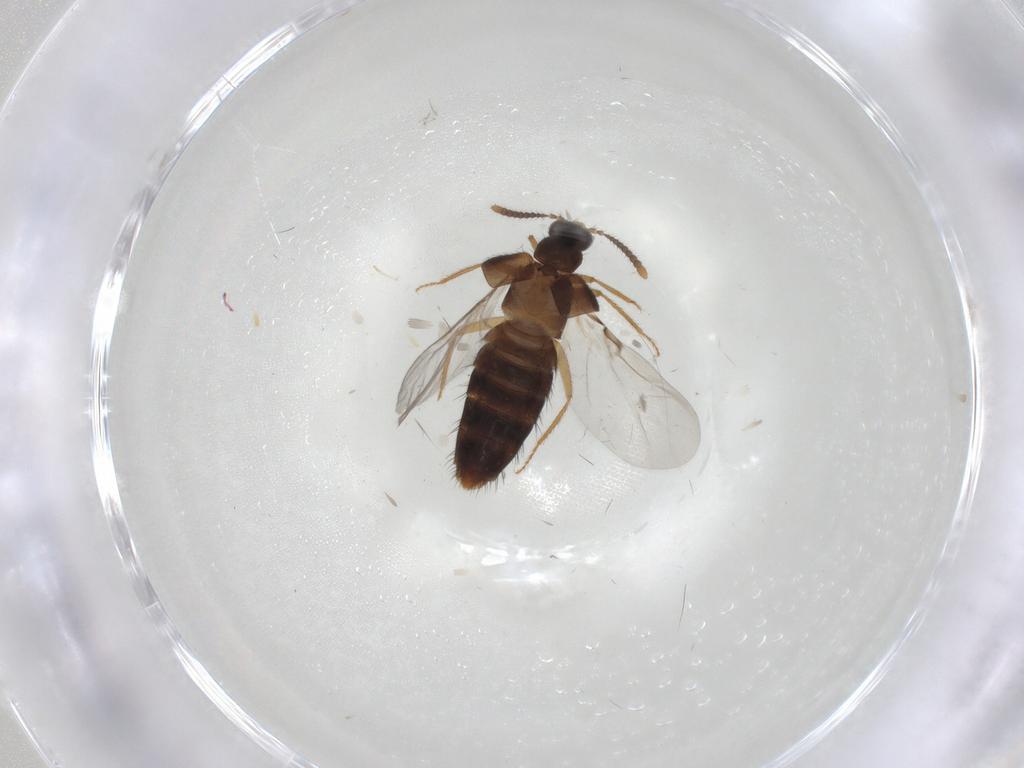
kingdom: Animalia
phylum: Arthropoda
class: Insecta
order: Coleoptera
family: Staphylinidae
